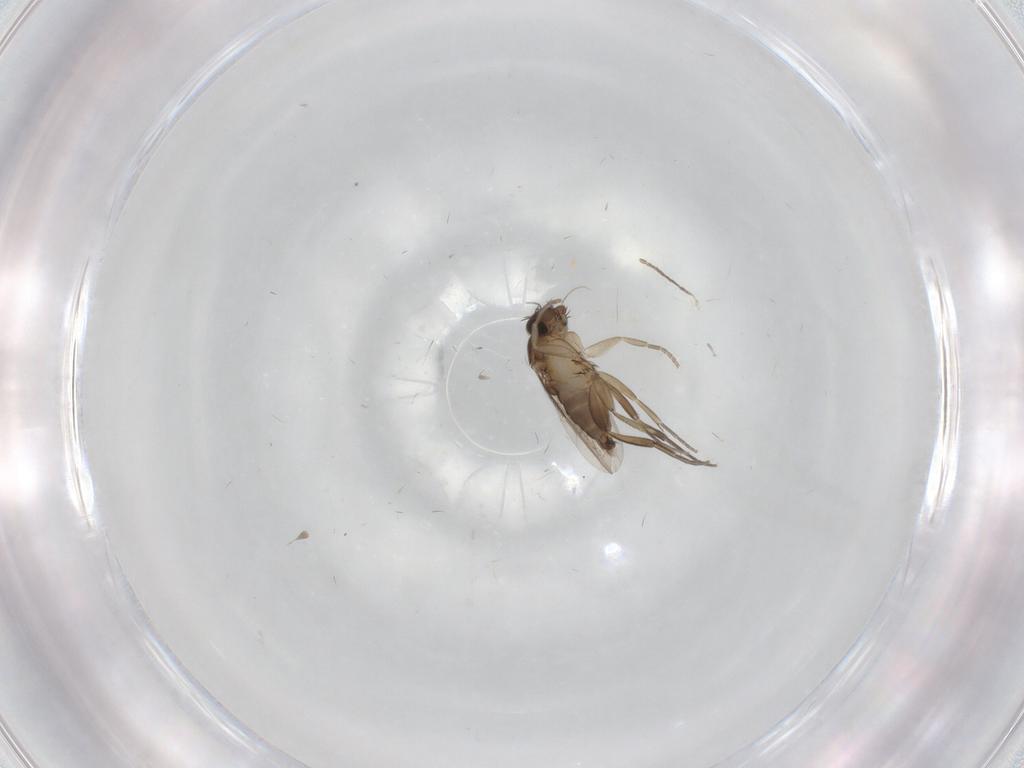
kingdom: Animalia
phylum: Arthropoda
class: Insecta
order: Diptera
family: Phoridae
